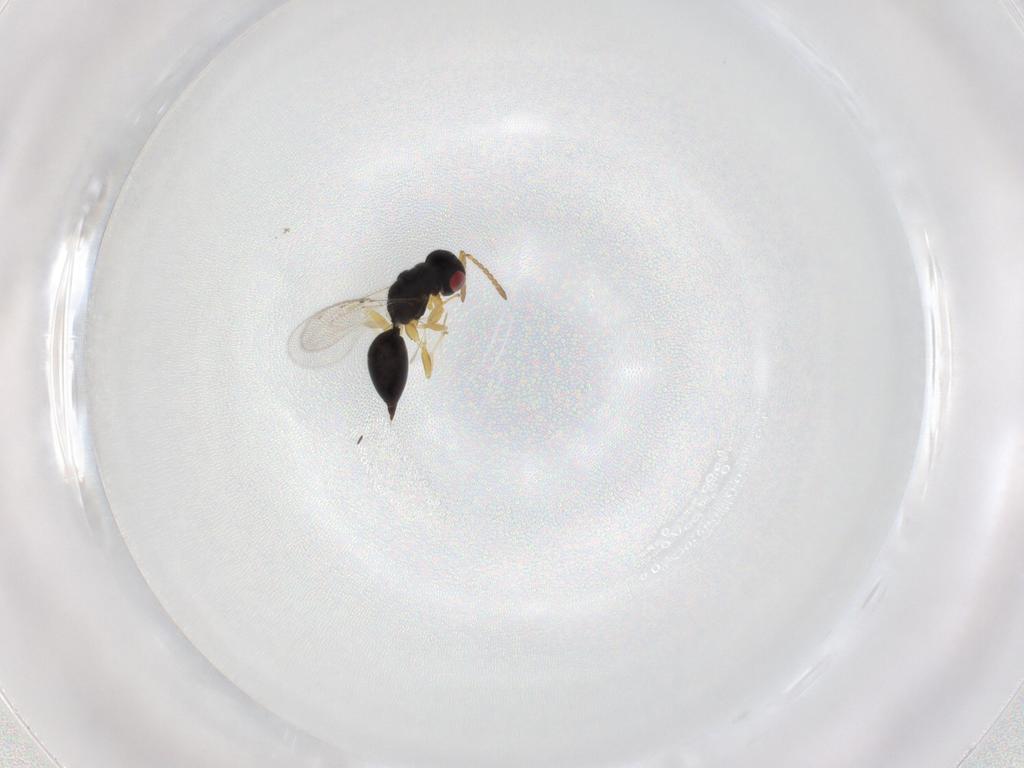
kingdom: Animalia
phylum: Arthropoda
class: Insecta
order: Hymenoptera
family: Eurytomidae
